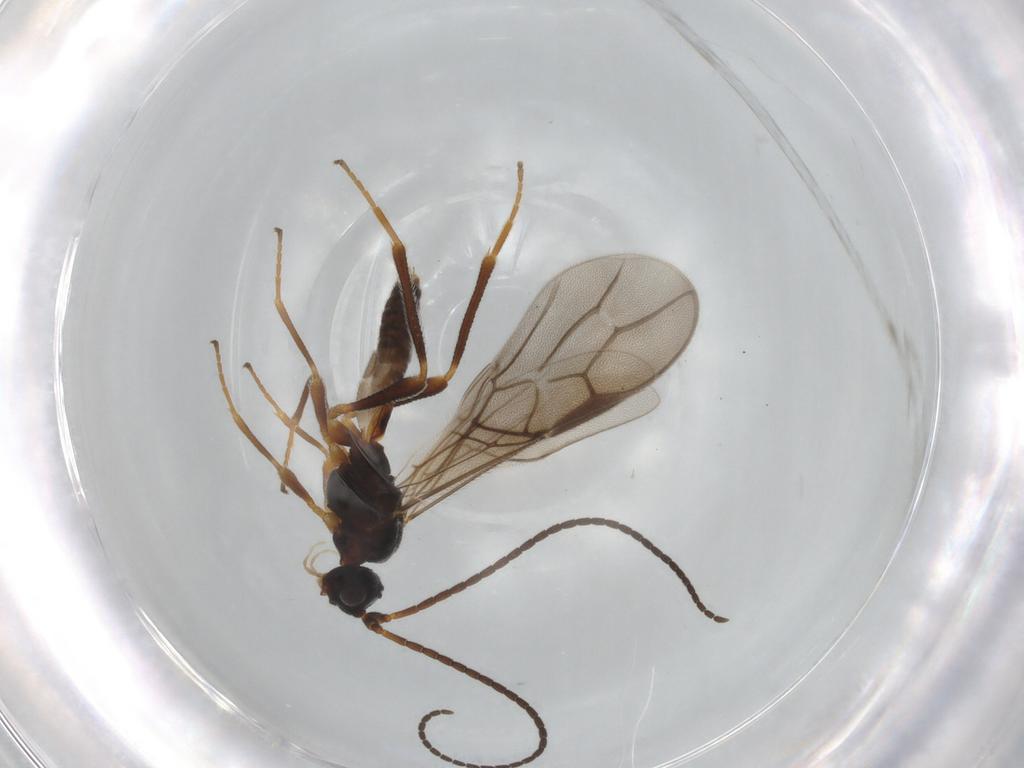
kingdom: Animalia
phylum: Arthropoda
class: Insecta
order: Hymenoptera
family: Braconidae
